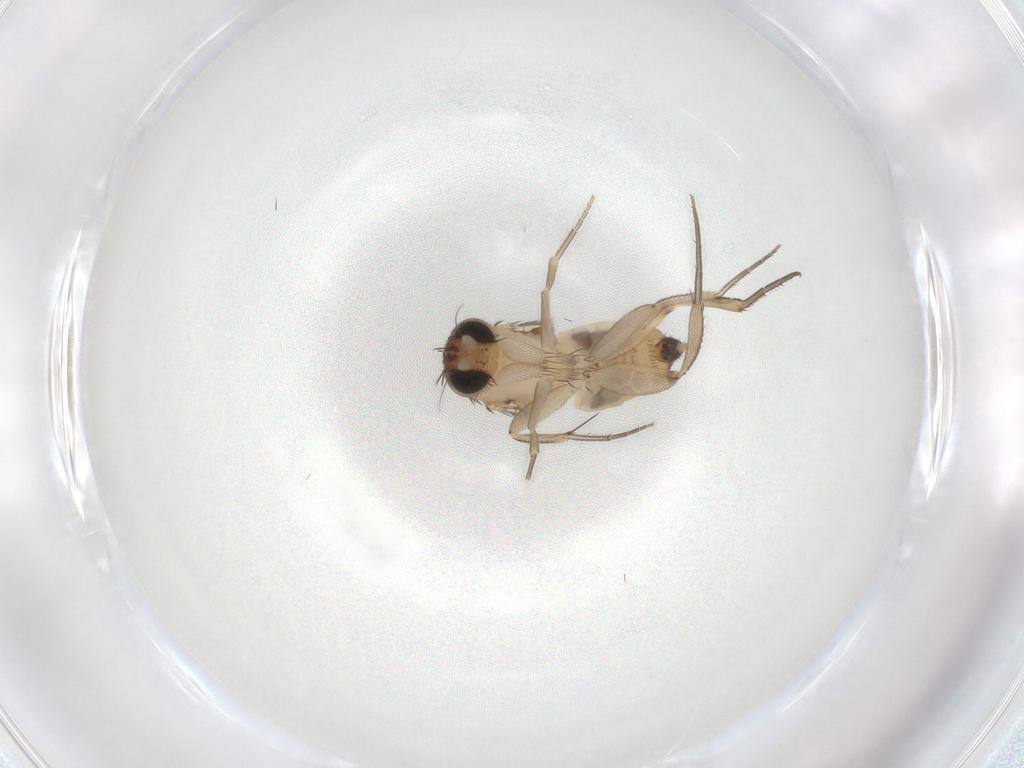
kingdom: Animalia
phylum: Arthropoda
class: Insecta
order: Diptera
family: Phoridae
